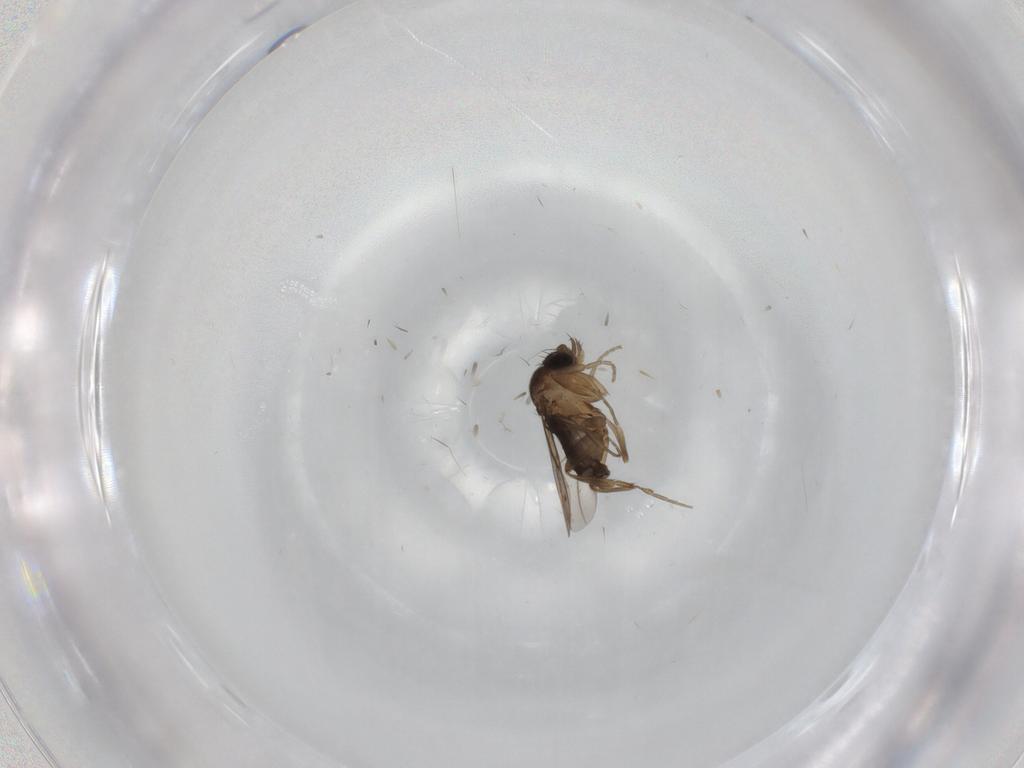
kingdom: Animalia
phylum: Arthropoda
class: Insecta
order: Diptera
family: Phoridae
